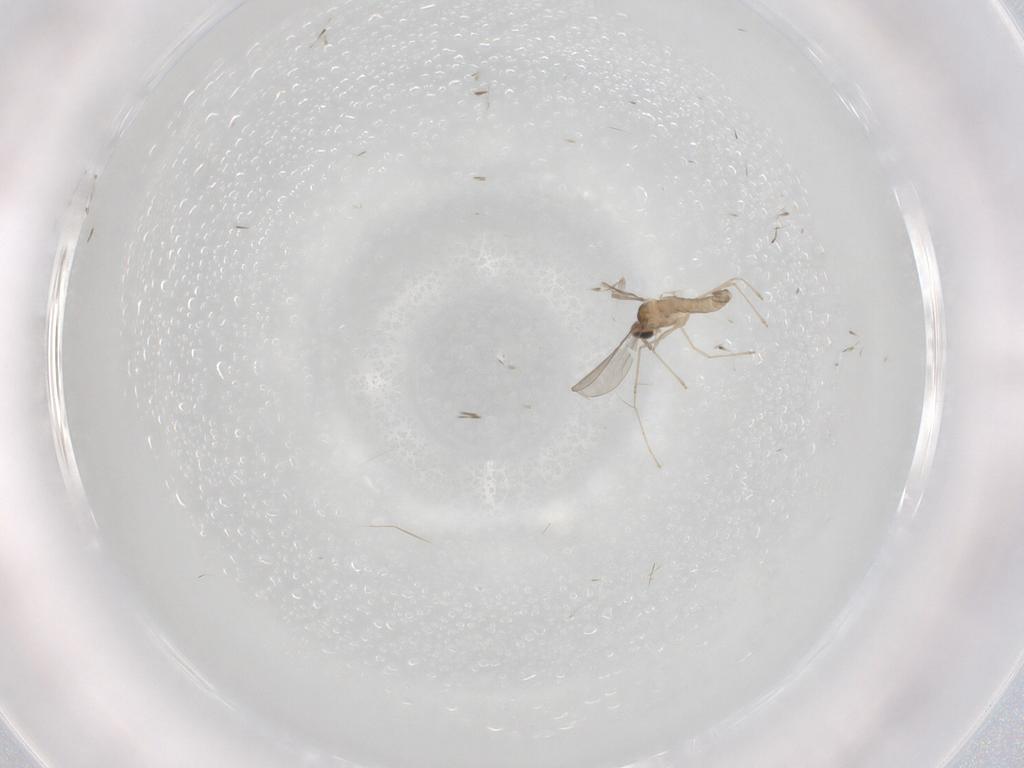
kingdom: Animalia
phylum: Arthropoda
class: Insecta
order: Diptera
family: Cecidomyiidae
